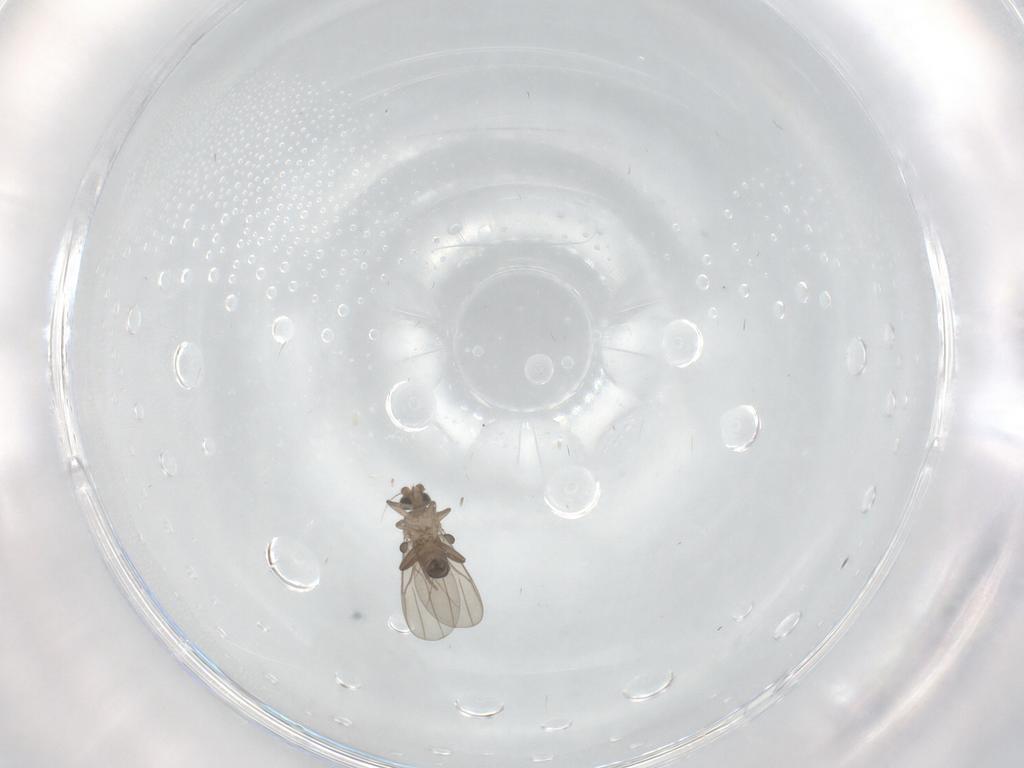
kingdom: Animalia
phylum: Arthropoda
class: Insecta
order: Diptera
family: Phoridae
